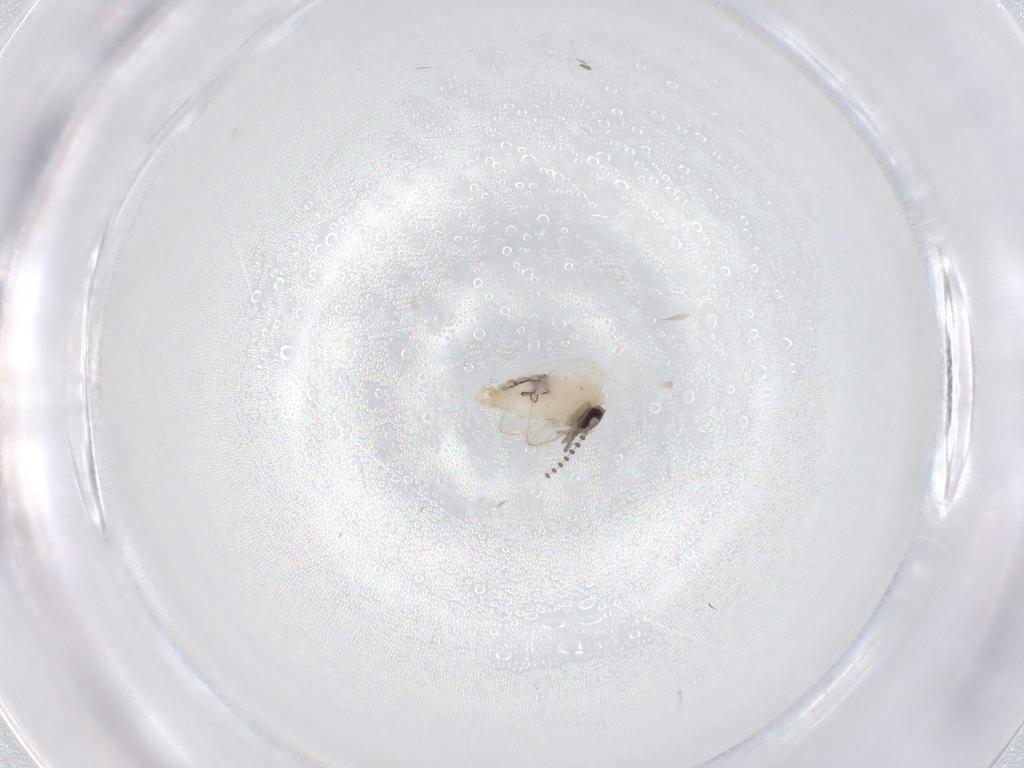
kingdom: Animalia
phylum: Arthropoda
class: Insecta
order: Diptera
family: Psychodidae
